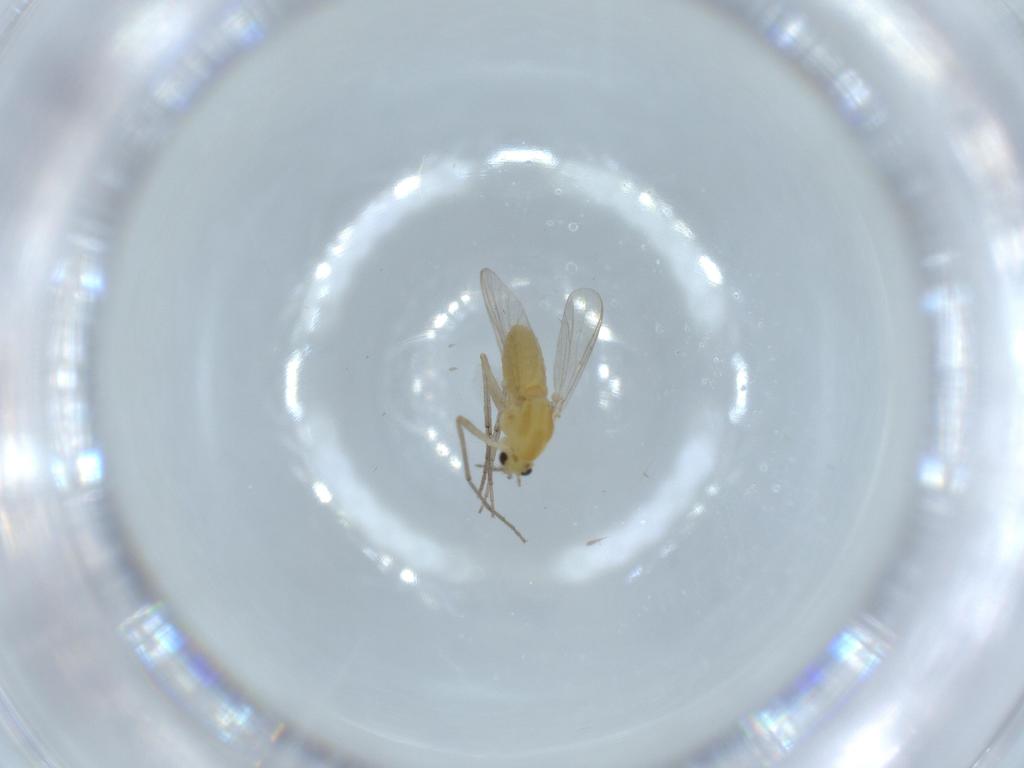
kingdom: Animalia
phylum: Arthropoda
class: Insecta
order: Diptera
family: Chironomidae
